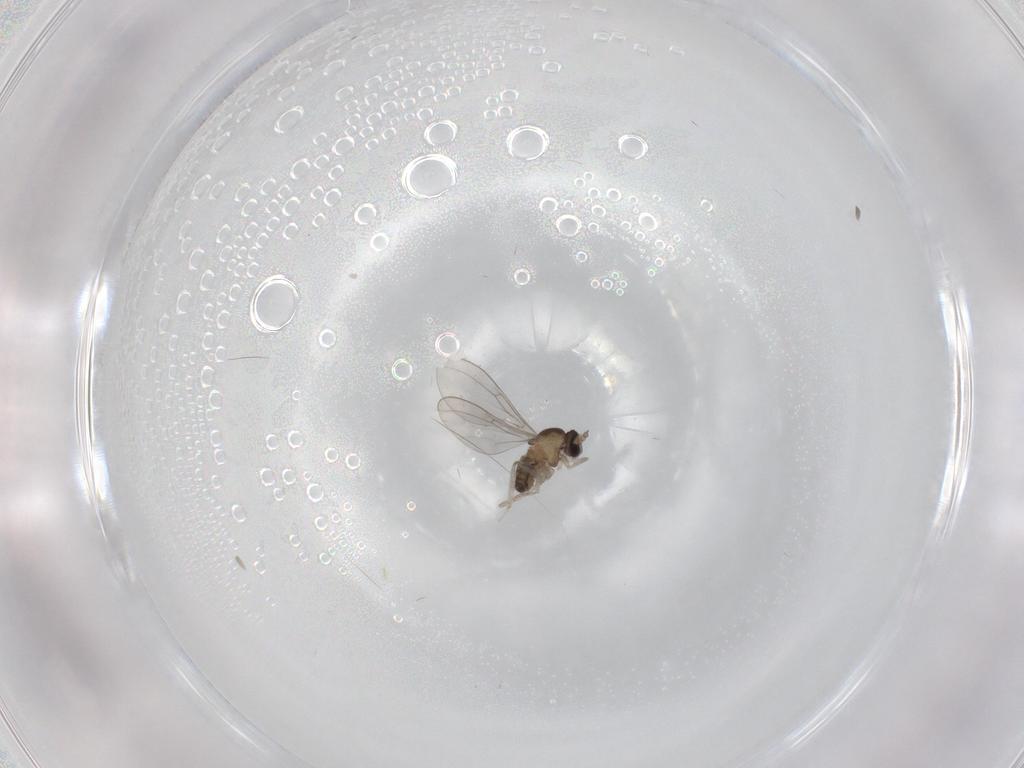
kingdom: Animalia
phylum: Arthropoda
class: Insecta
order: Diptera
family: Cecidomyiidae
